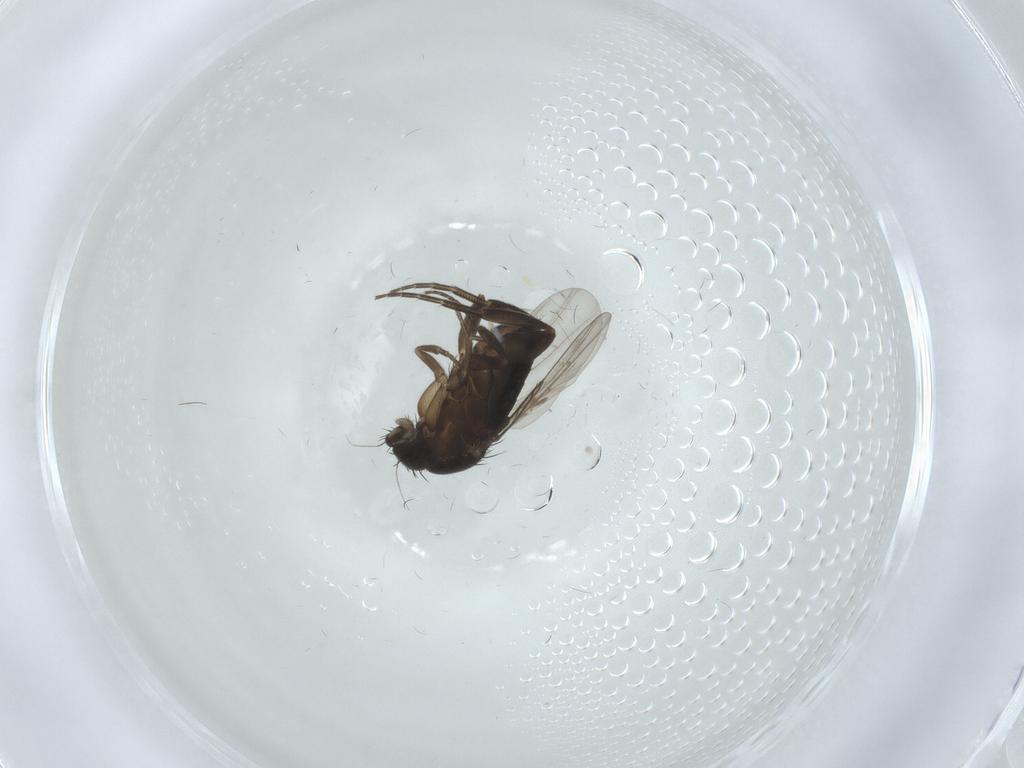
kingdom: Animalia
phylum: Arthropoda
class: Insecta
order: Diptera
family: Phoridae
